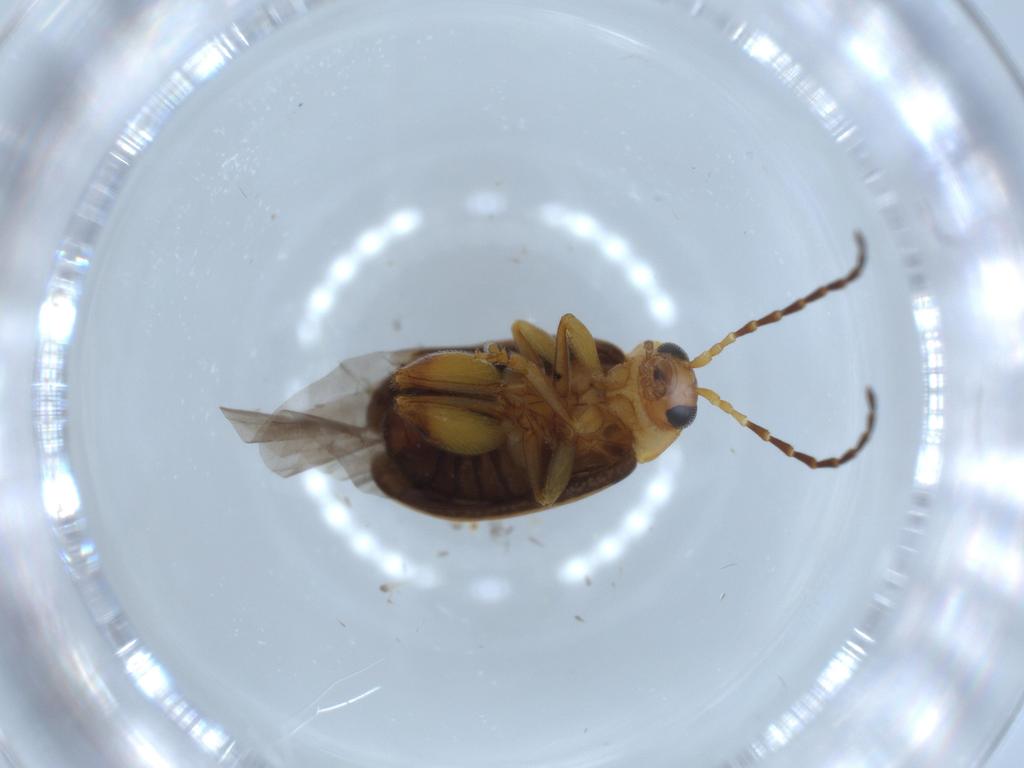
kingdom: Animalia
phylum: Arthropoda
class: Insecta
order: Coleoptera
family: Chrysomelidae
